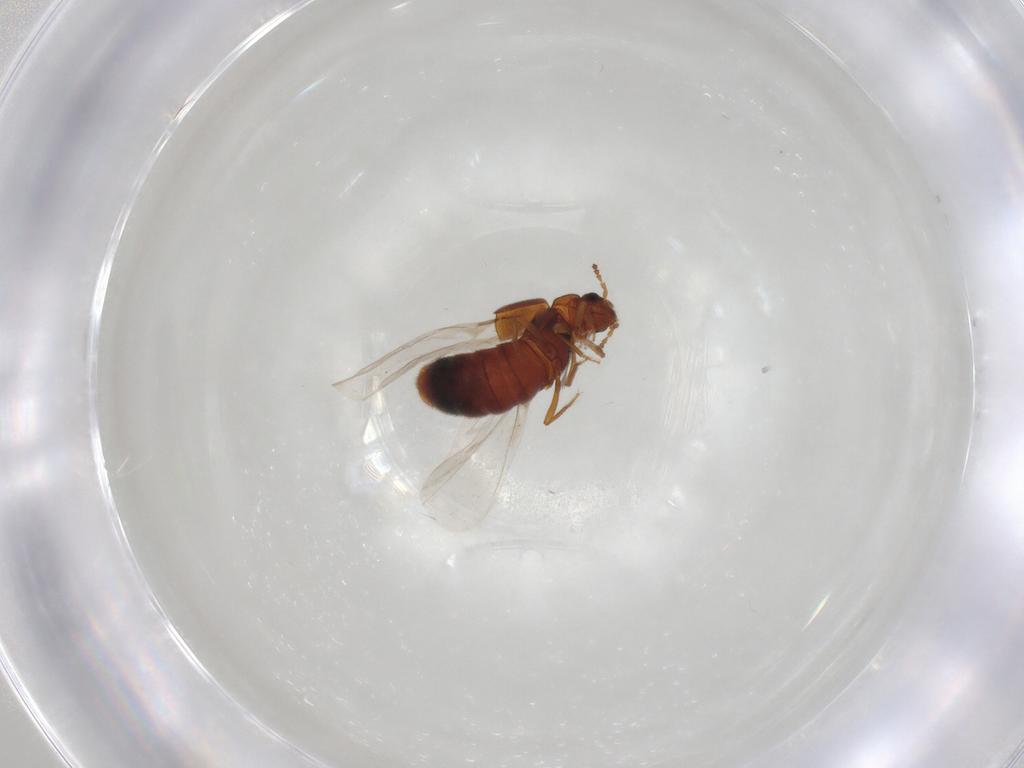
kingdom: Animalia
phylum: Arthropoda
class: Insecta
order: Coleoptera
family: Staphylinidae
